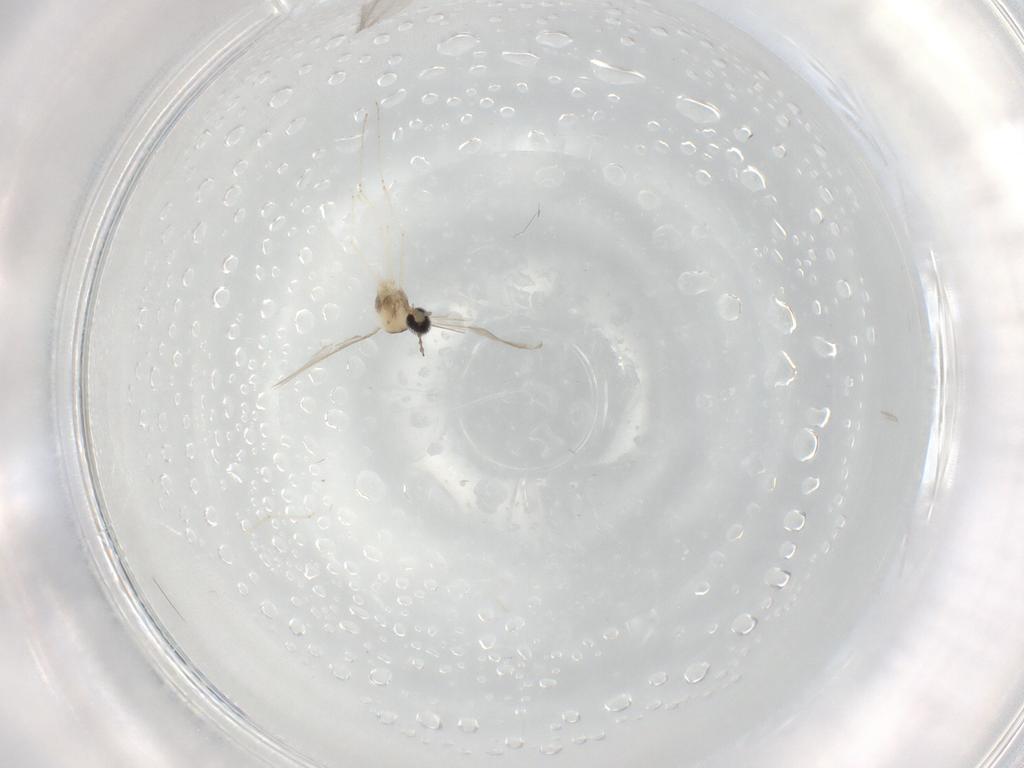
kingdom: Animalia
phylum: Arthropoda
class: Insecta
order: Diptera
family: Cecidomyiidae
